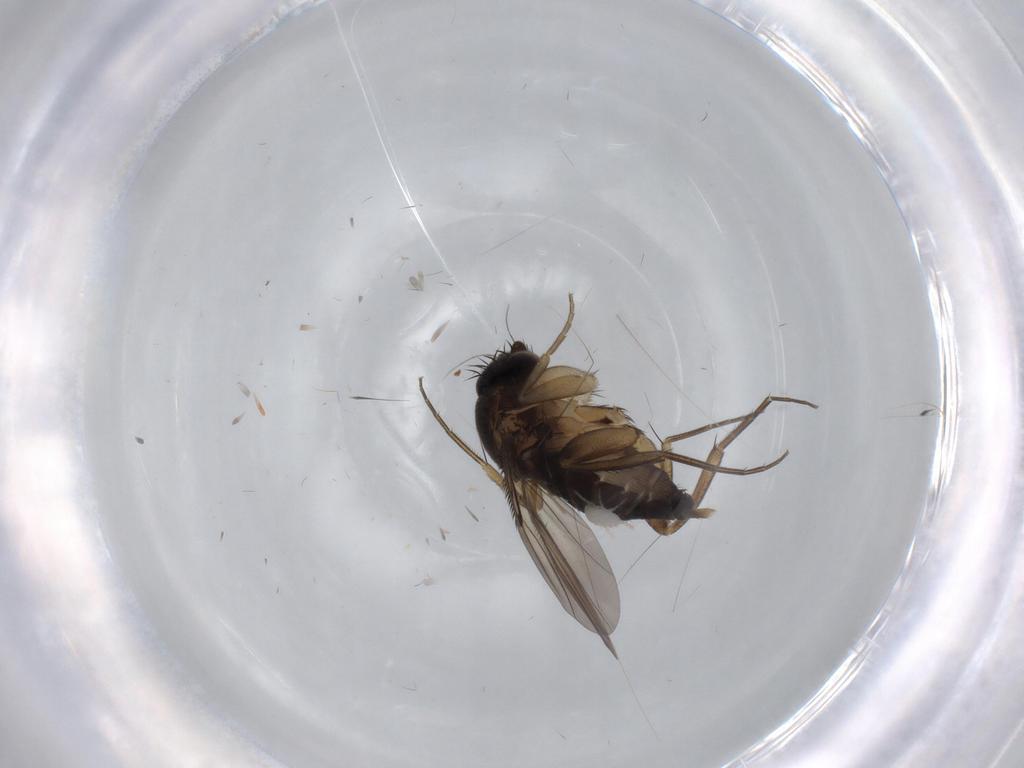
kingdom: Animalia
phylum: Arthropoda
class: Insecta
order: Diptera
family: Phoridae
